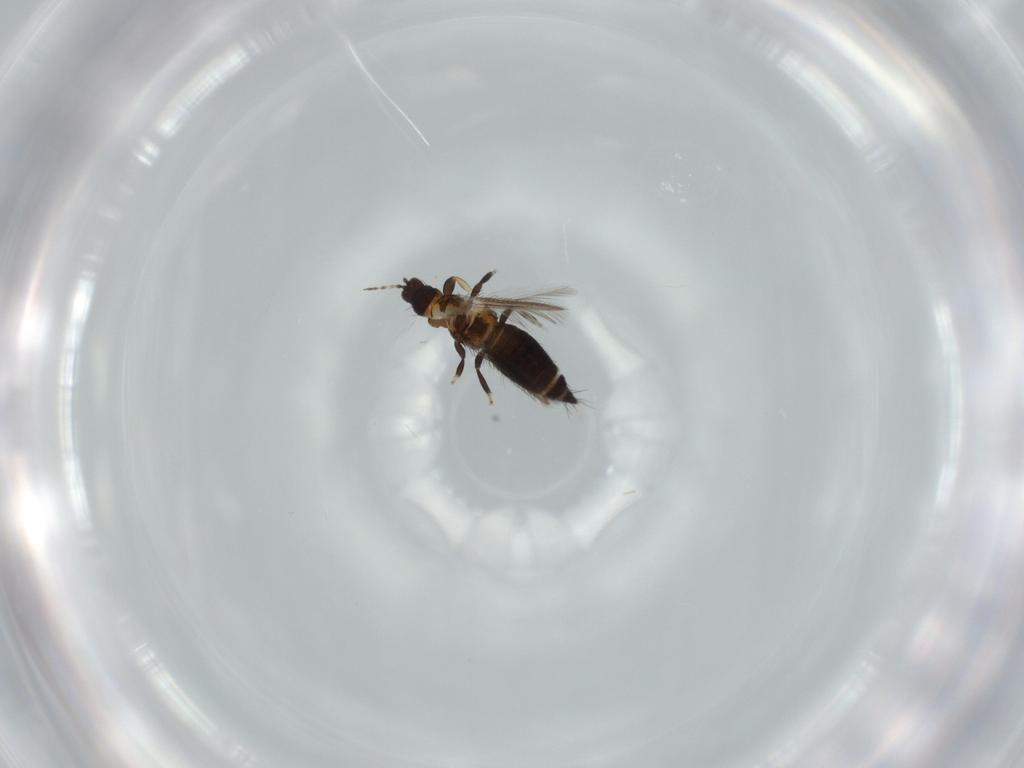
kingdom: Animalia
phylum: Arthropoda
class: Insecta
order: Thysanoptera
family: Thripidae
